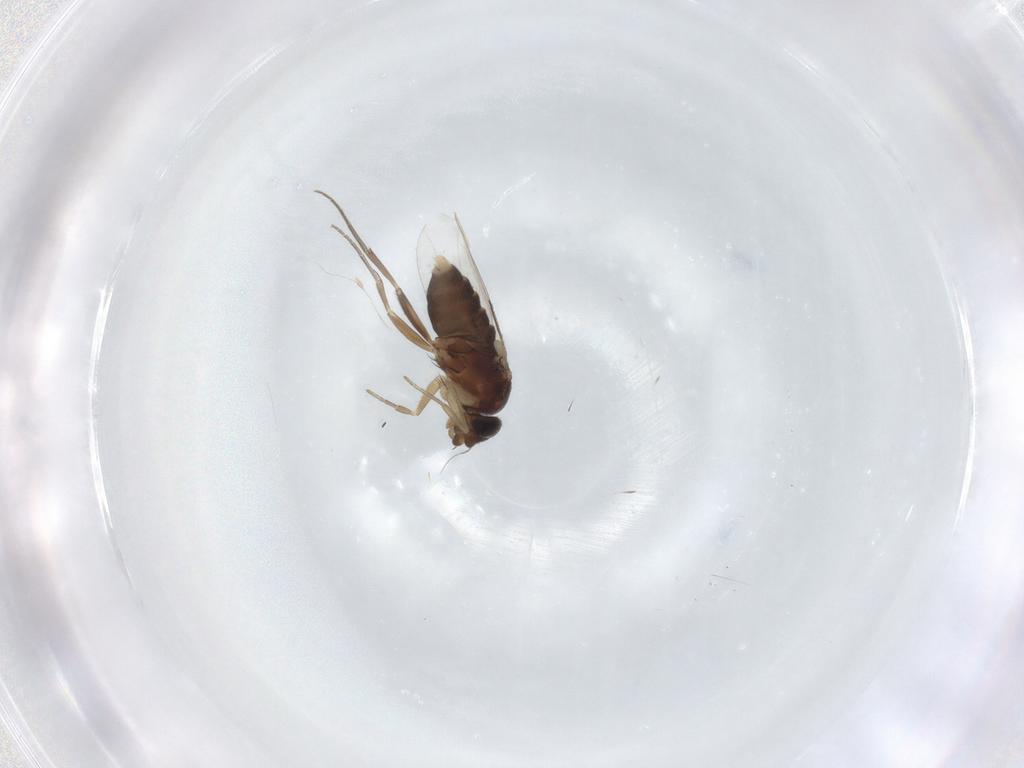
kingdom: Animalia
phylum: Arthropoda
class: Insecta
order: Diptera
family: Phoridae
